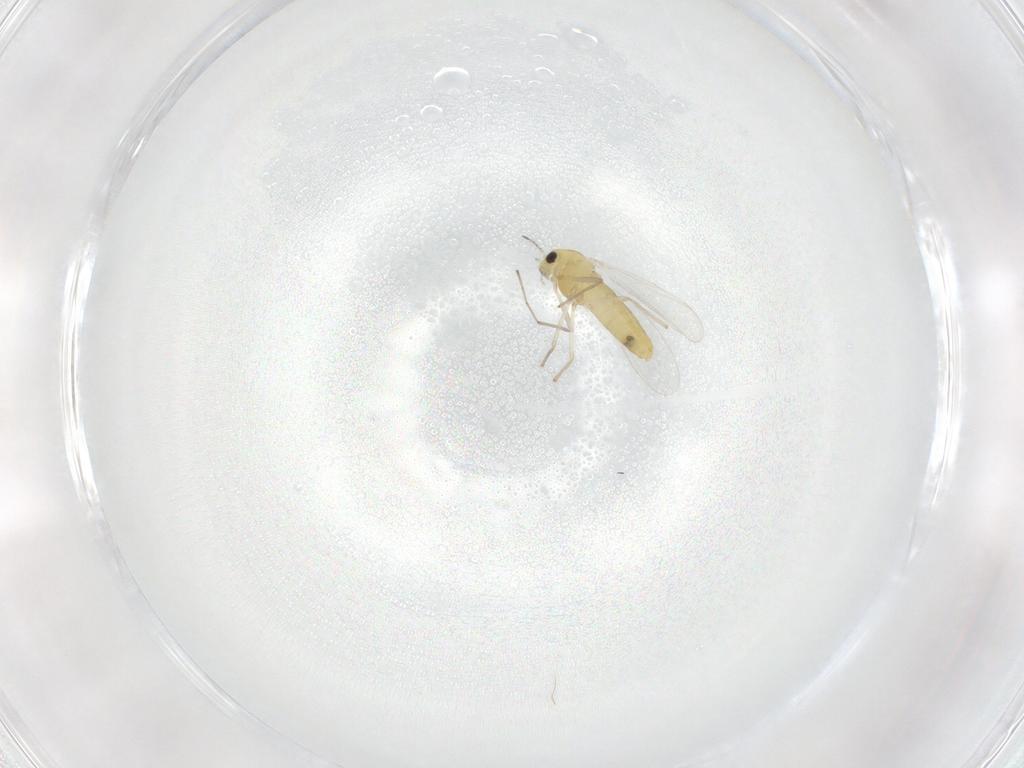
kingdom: Animalia
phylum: Arthropoda
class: Insecta
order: Diptera
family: Chironomidae
